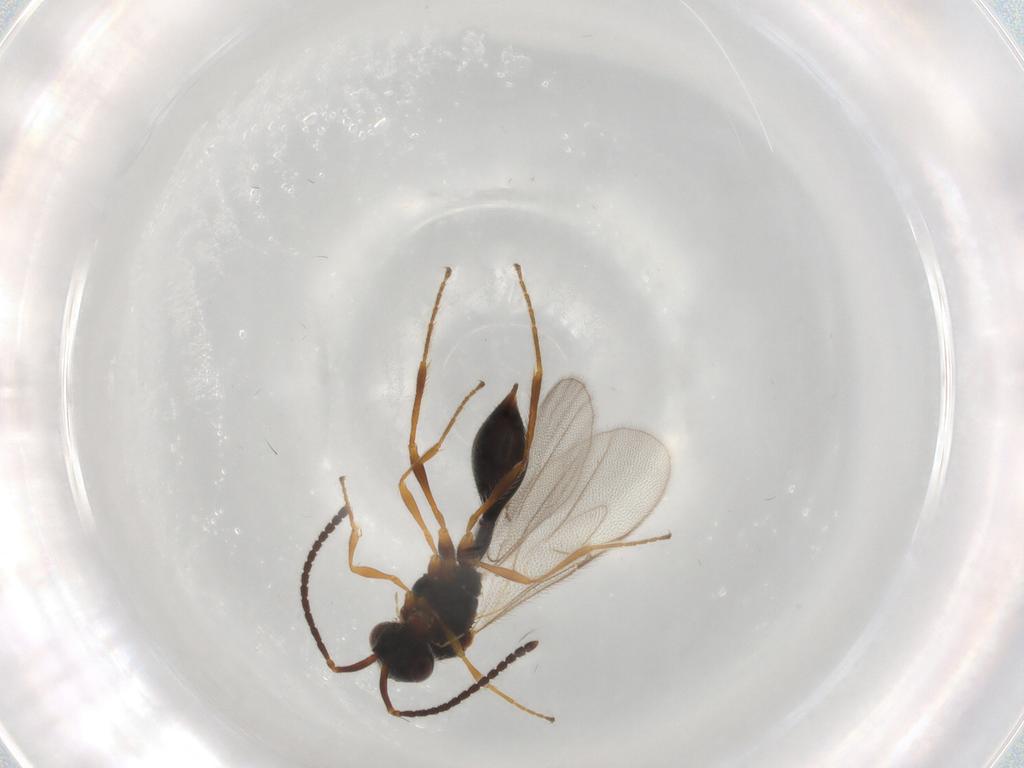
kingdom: Animalia
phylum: Arthropoda
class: Insecta
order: Hymenoptera
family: Diapriidae
